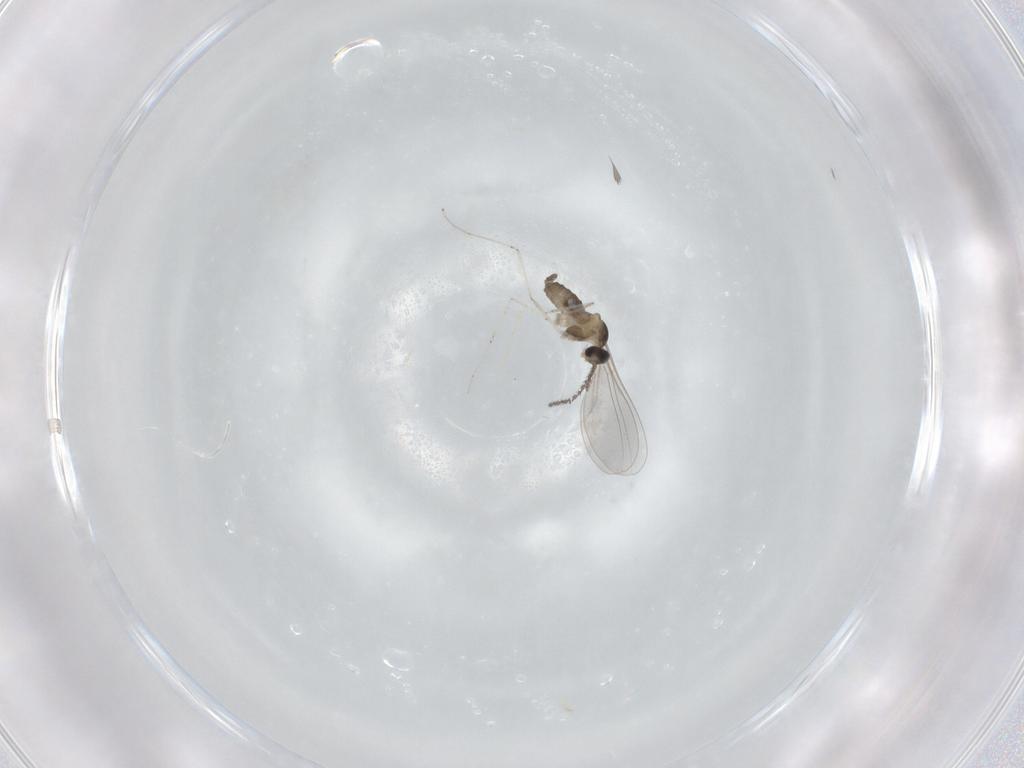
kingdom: Animalia
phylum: Arthropoda
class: Insecta
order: Diptera
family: Cecidomyiidae
